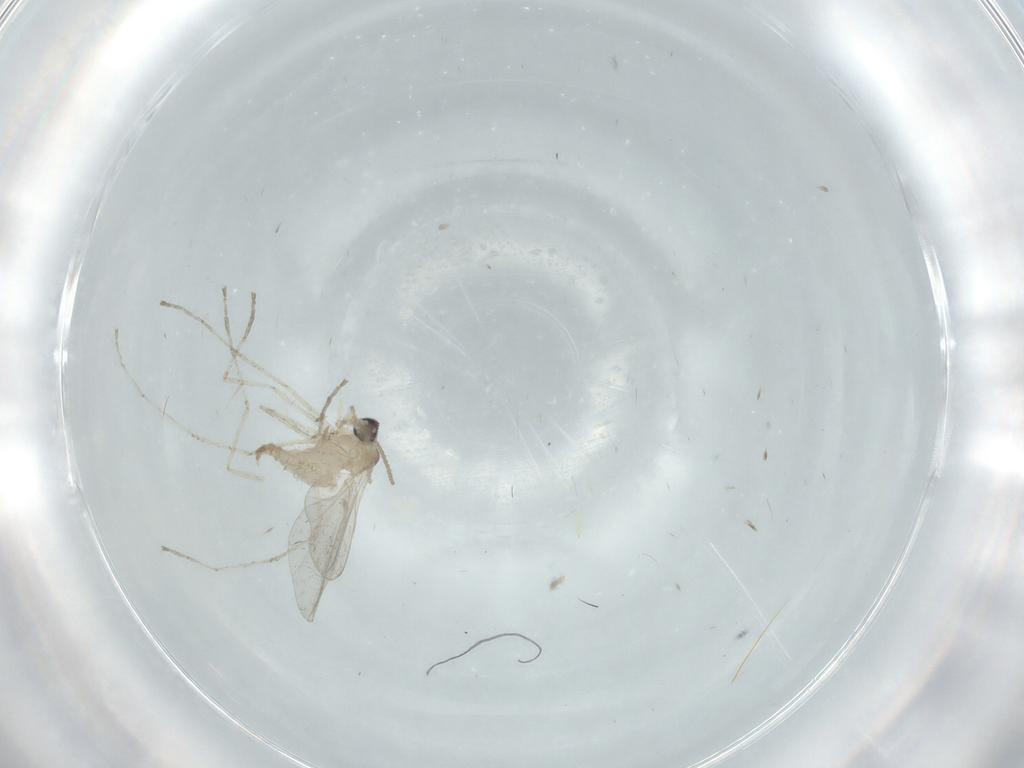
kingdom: Animalia
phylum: Arthropoda
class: Insecta
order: Diptera
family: Cecidomyiidae
